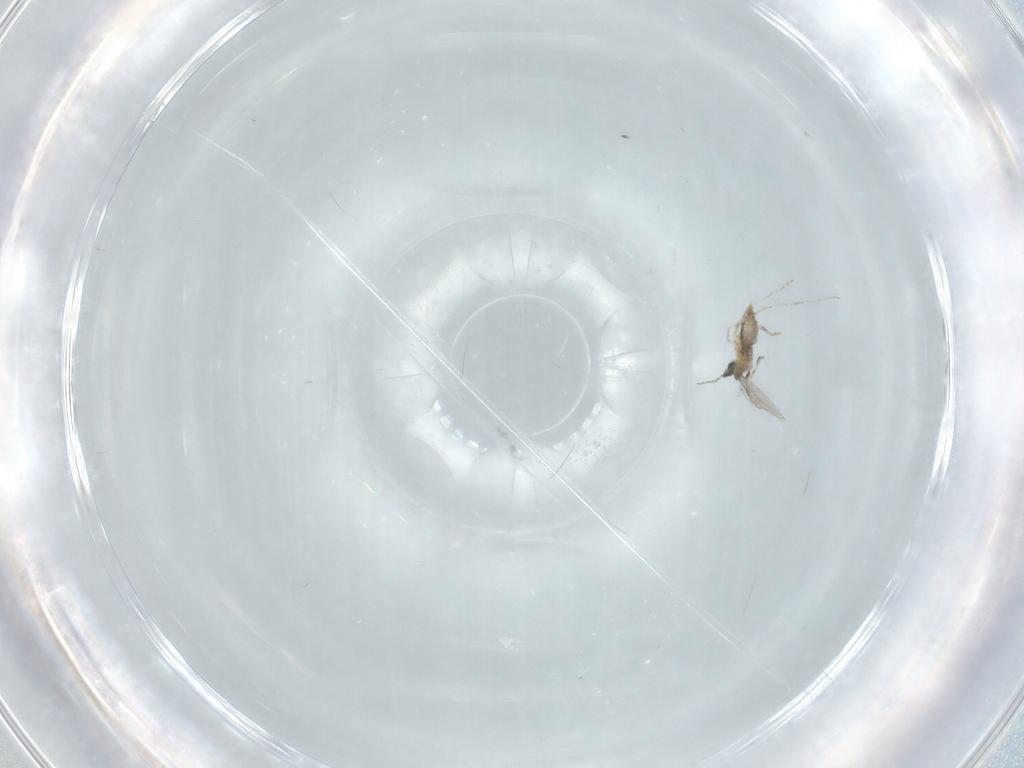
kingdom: Animalia
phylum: Arthropoda
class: Insecta
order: Diptera
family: Cecidomyiidae
